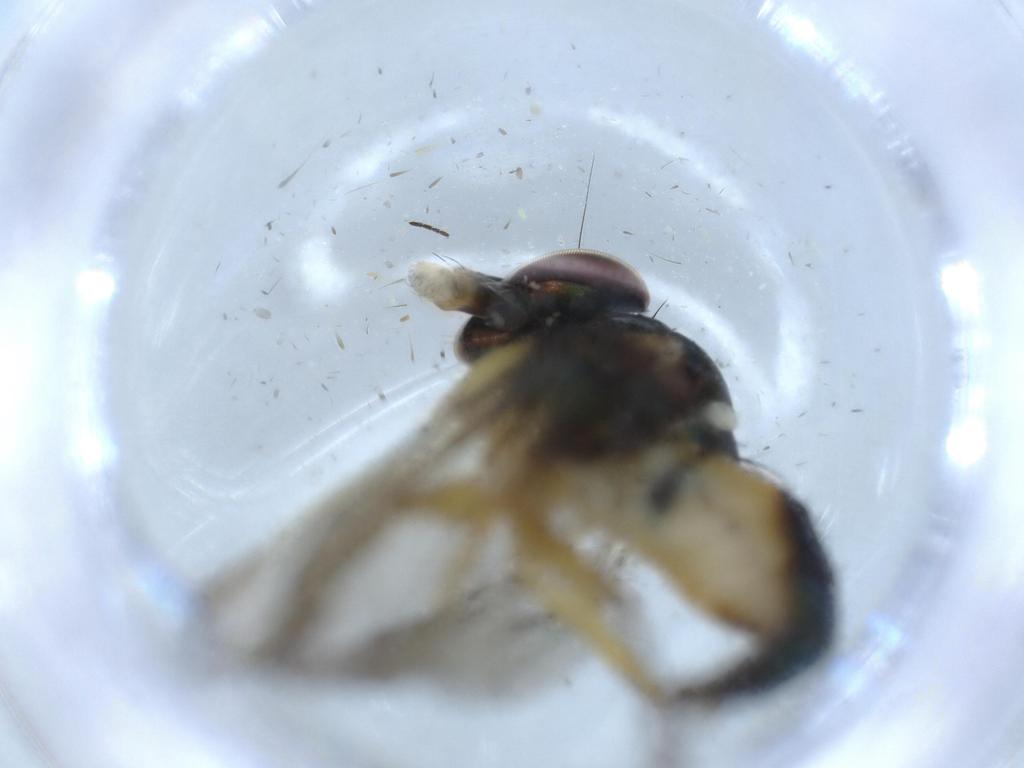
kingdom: Animalia
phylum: Arthropoda
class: Insecta
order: Diptera
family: Dolichopodidae
